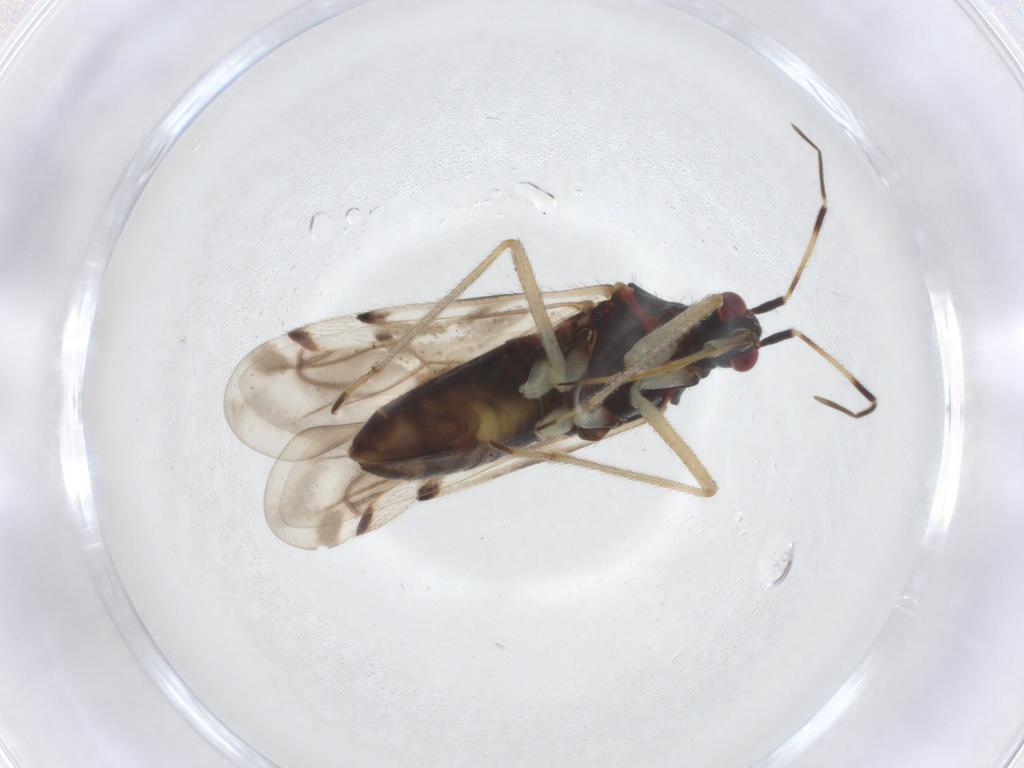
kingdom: Animalia
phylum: Arthropoda
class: Insecta
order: Hemiptera
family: Miridae
